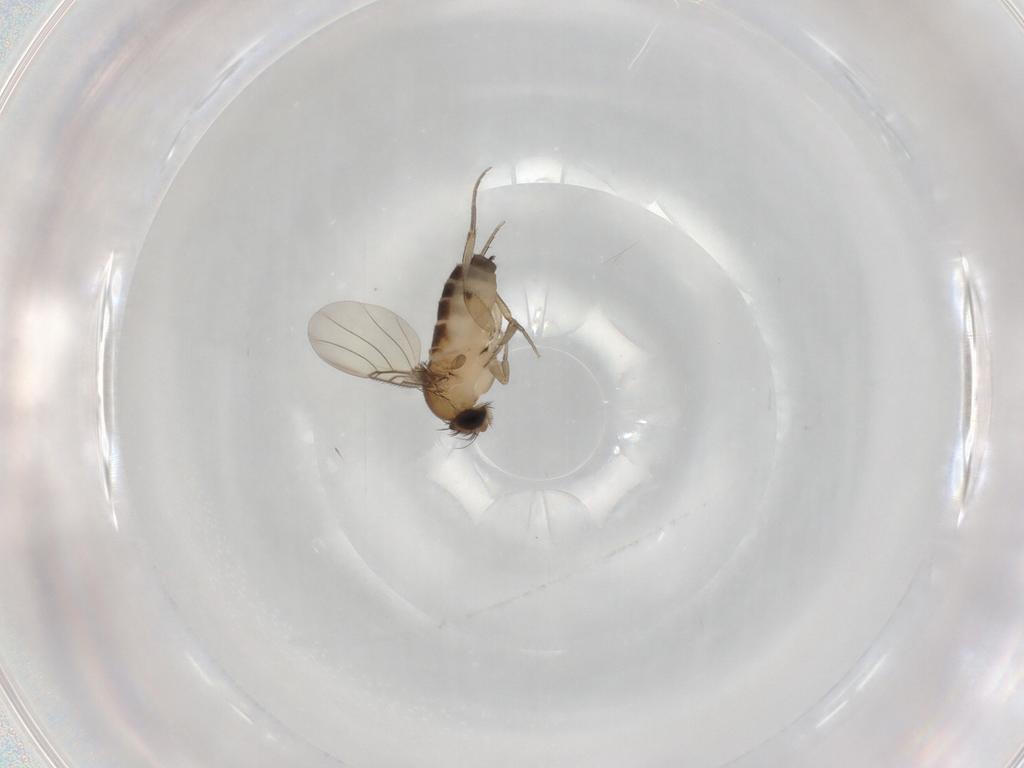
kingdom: Animalia
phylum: Arthropoda
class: Insecta
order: Diptera
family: Phoridae
